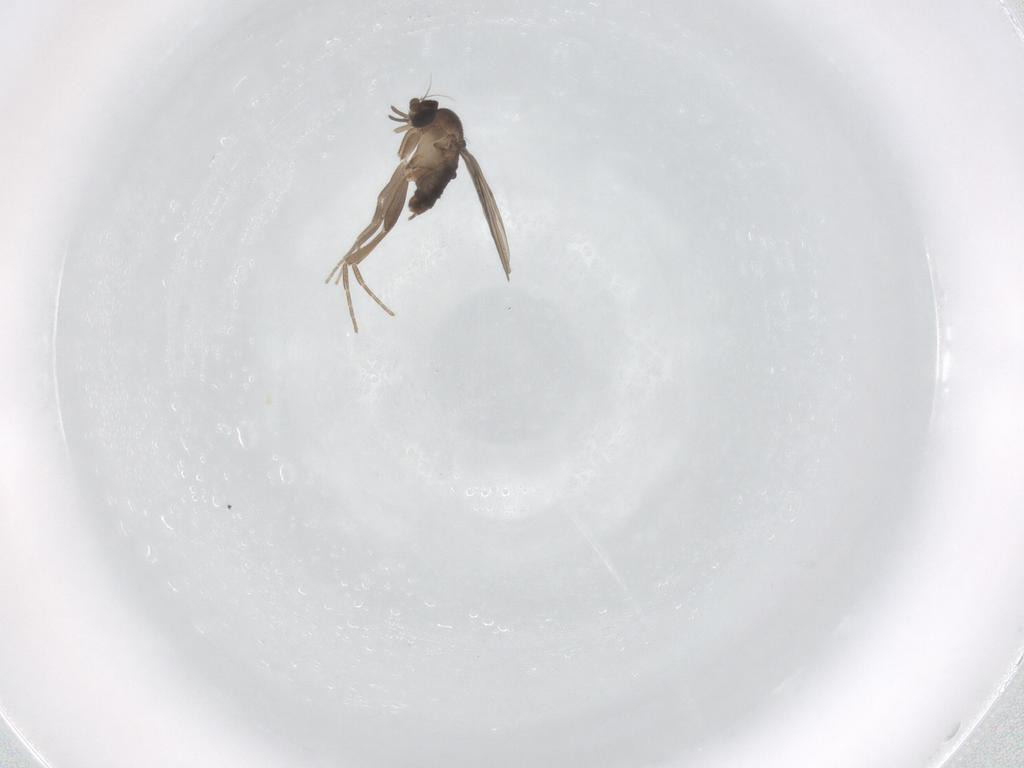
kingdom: Animalia
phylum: Arthropoda
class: Insecta
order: Diptera
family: Phoridae
